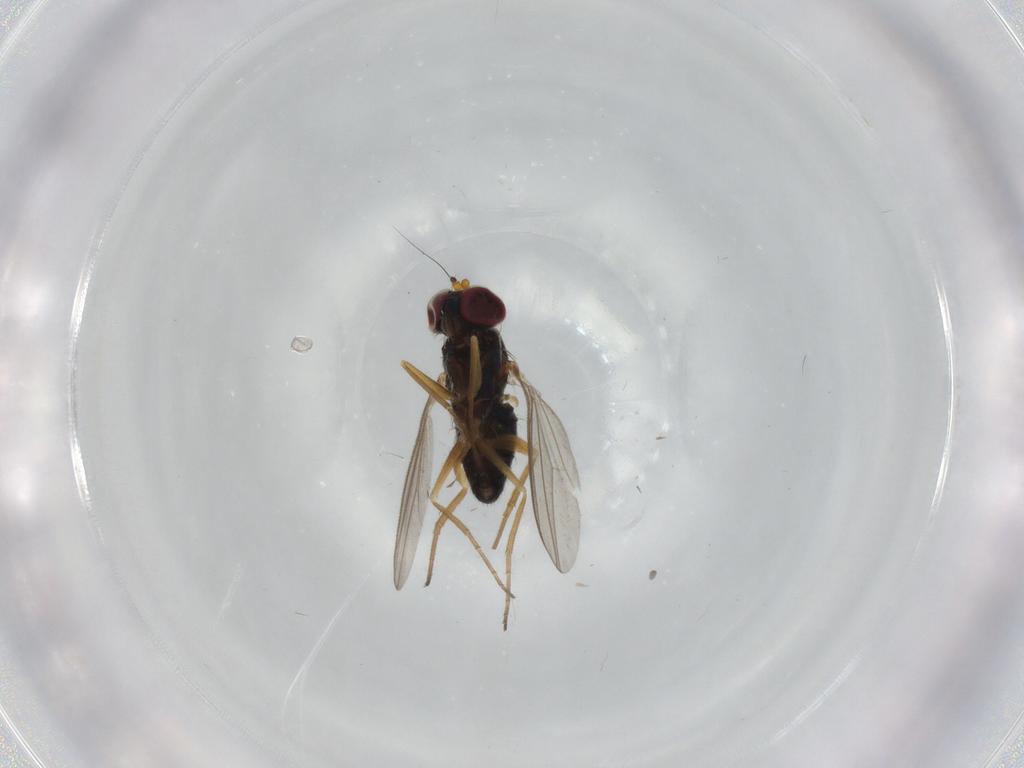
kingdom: Animalia
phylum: Arthropoda
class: Insecta
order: Diptera
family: Dolichopodidae
